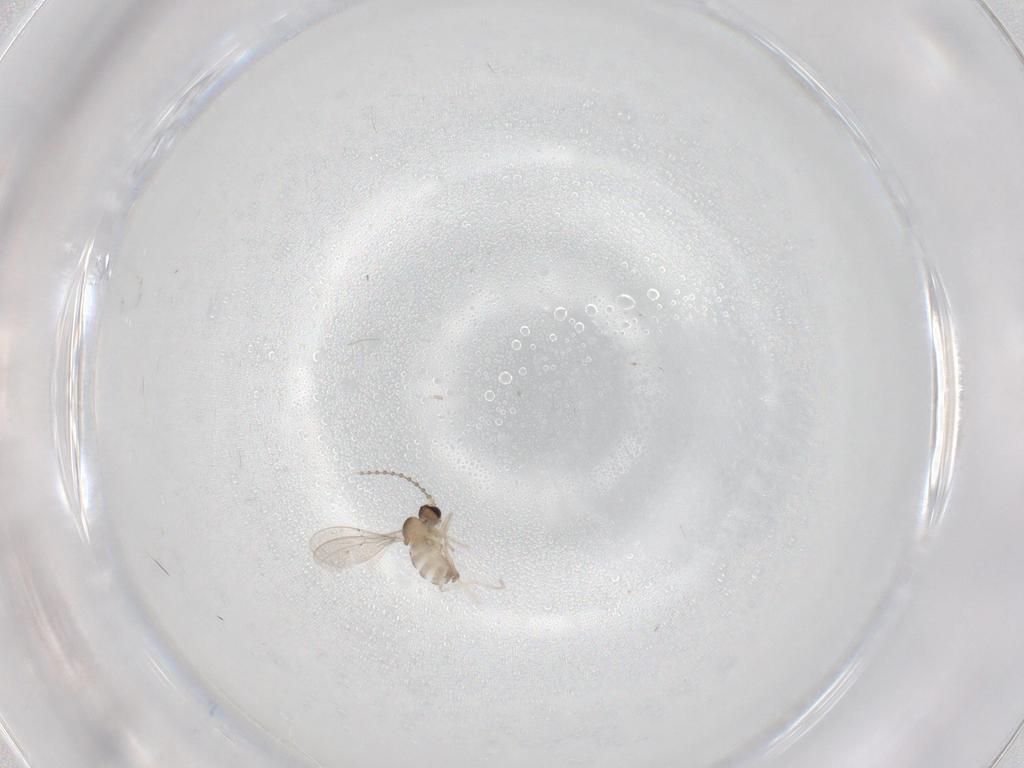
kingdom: Animalia
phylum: Arthropoda
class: Insecta
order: Diptera
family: Cecidomyiidae
